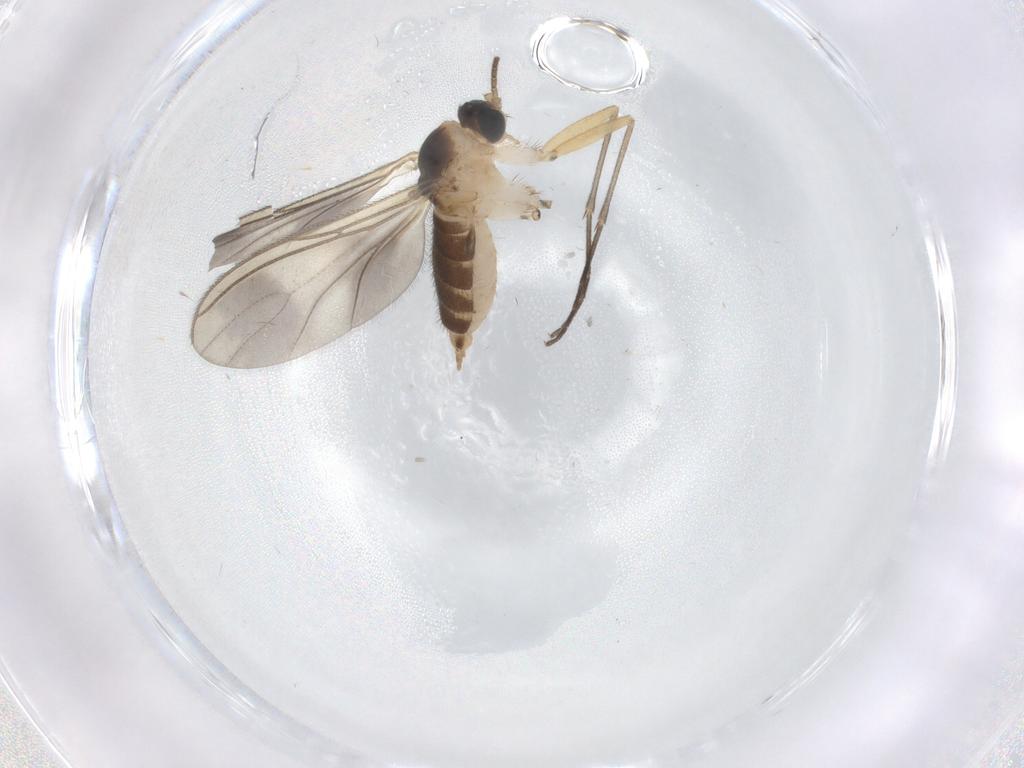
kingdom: Animalia
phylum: Arthropoda
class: Insecta
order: Diptera
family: Sciaridae
